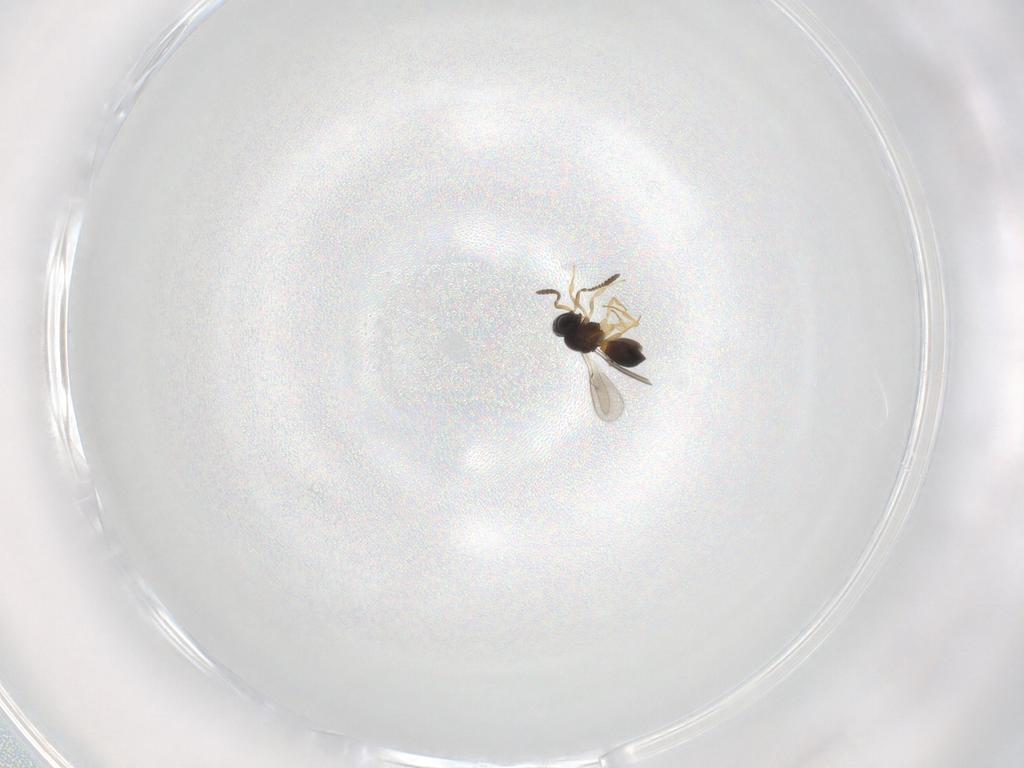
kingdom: Animalia
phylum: Arthropoda
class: Insecta
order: Hymenoptera
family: Scelionidae
